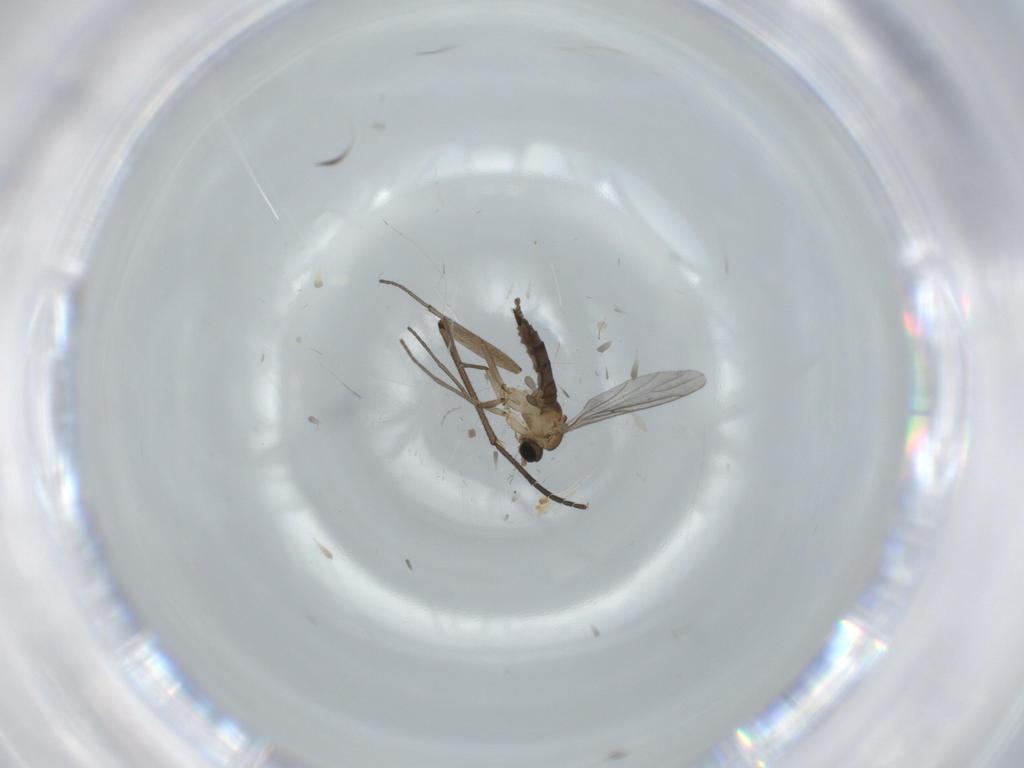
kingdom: Animalia
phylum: Arthropoda
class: Insecta
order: Diptera
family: Sciaridae
